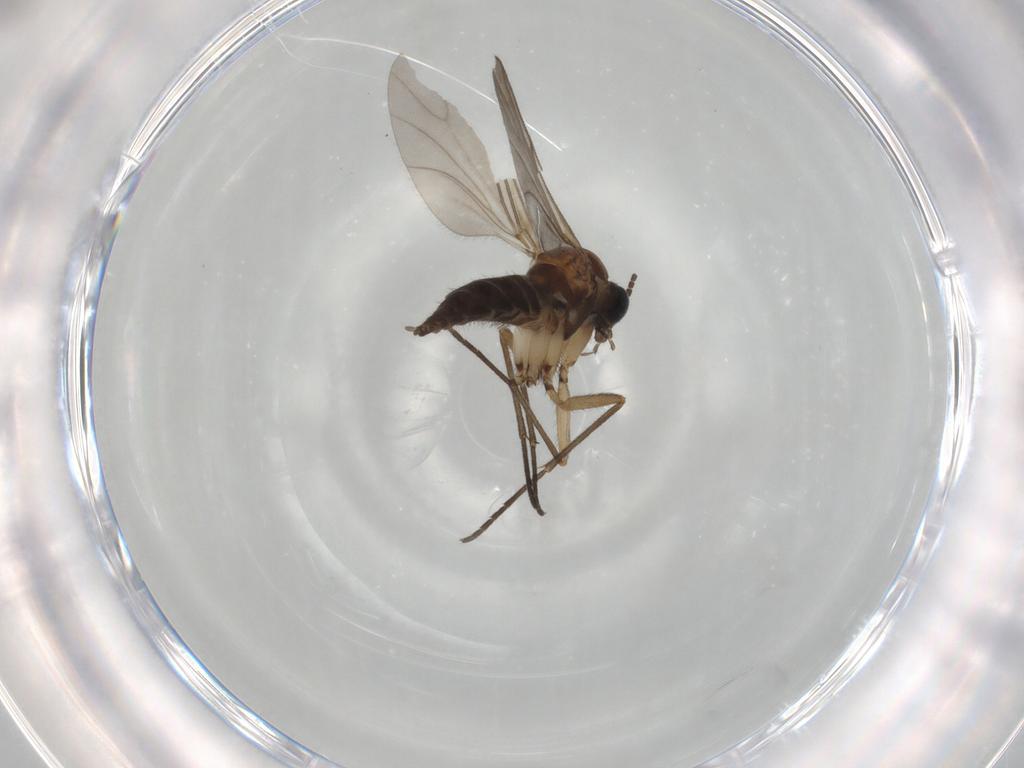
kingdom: Animalia
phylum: Arthropoda
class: Insecta
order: Diptera
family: Sciaridae
